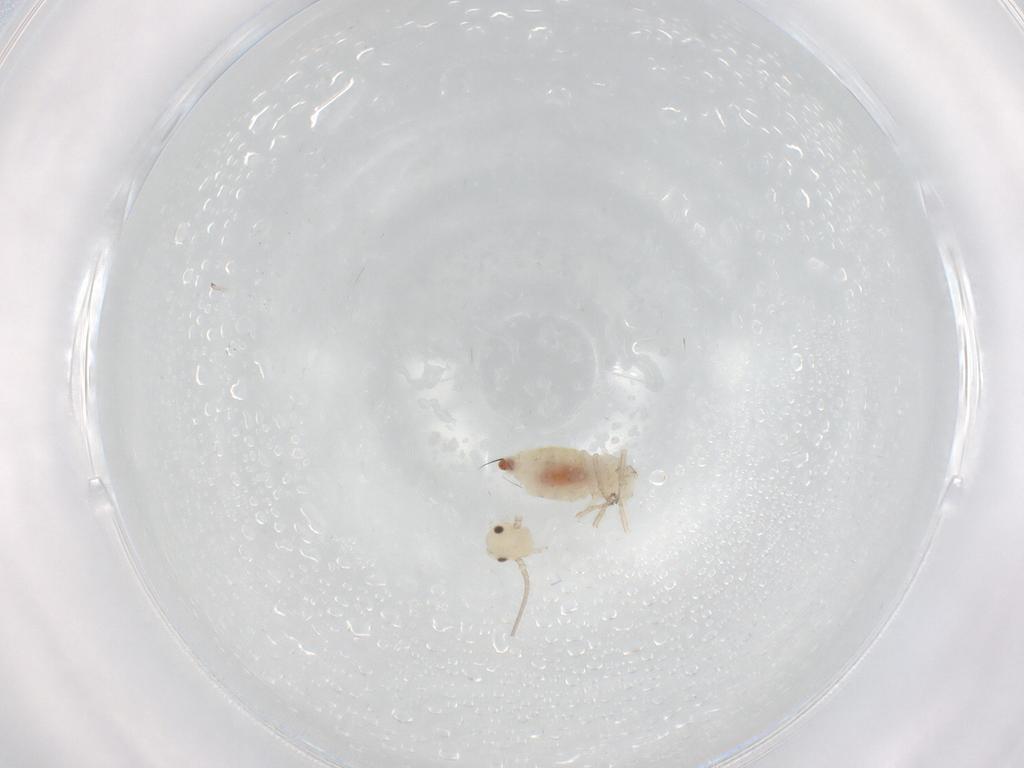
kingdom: Animalia
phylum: Arthropoda
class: Insecta
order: Psocodea
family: Caeciliusidae
